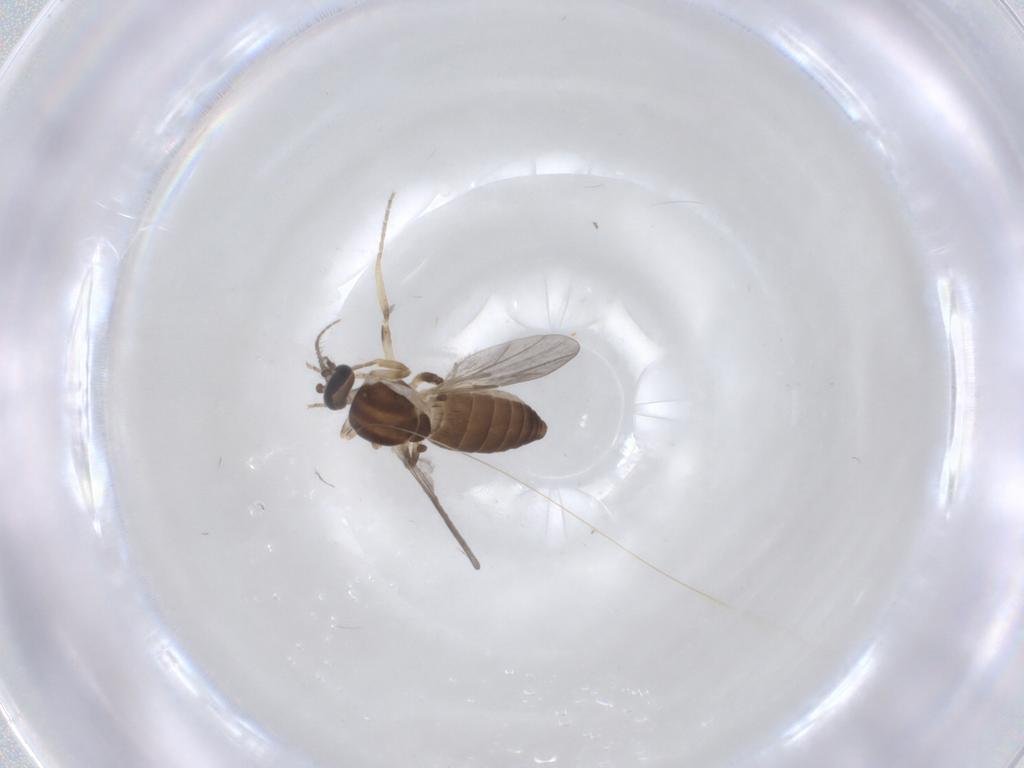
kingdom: Animalia
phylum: Arthropoda
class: Insecta
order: Diptera
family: Ceratopogonidae
